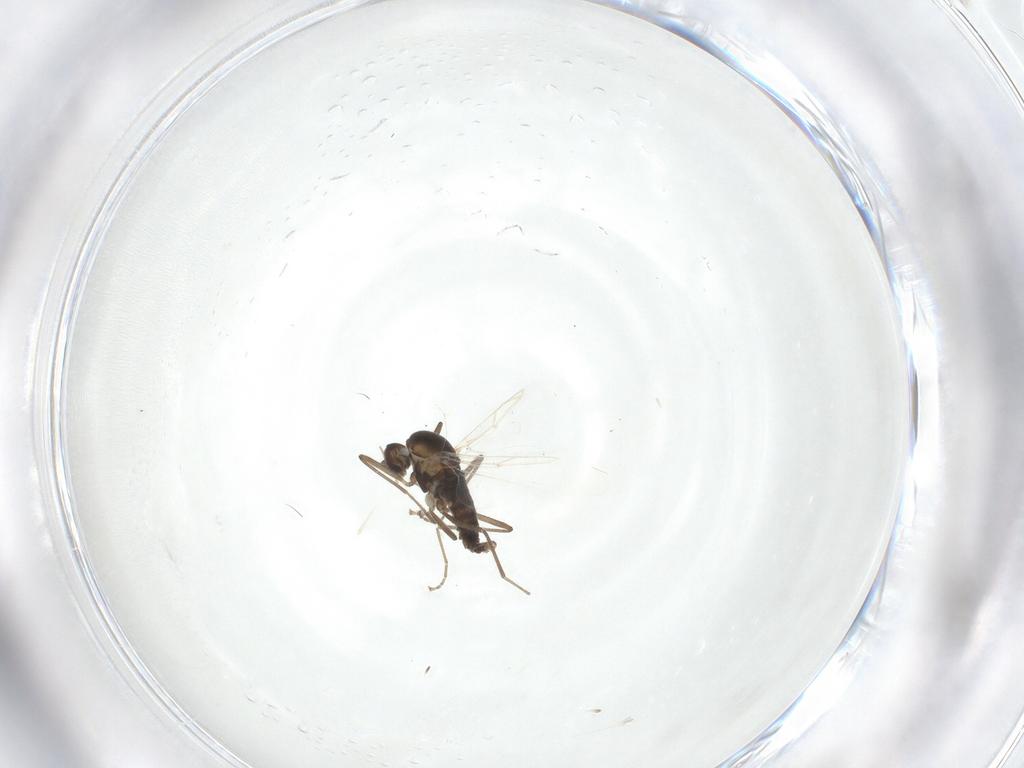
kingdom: Animalia
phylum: Arthropoda
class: Insecta
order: Diptera
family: Cecidomyiidae
